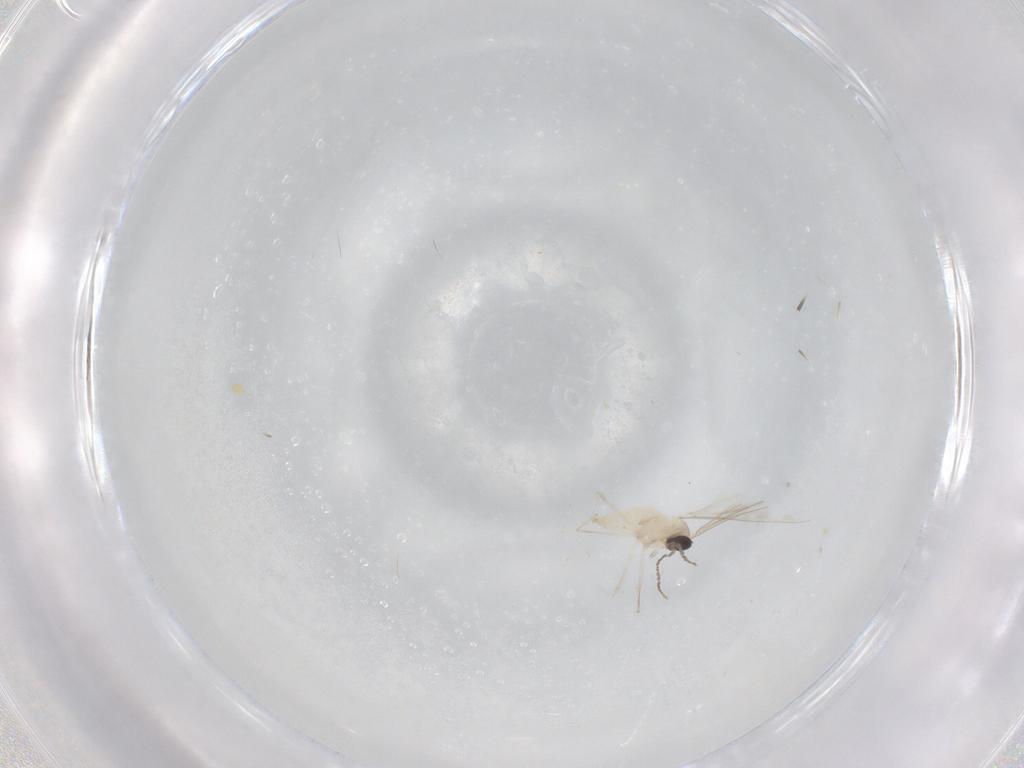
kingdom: Animalia
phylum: Arthropoda
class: Insecta
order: Diptera
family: Cecidomyiidae
